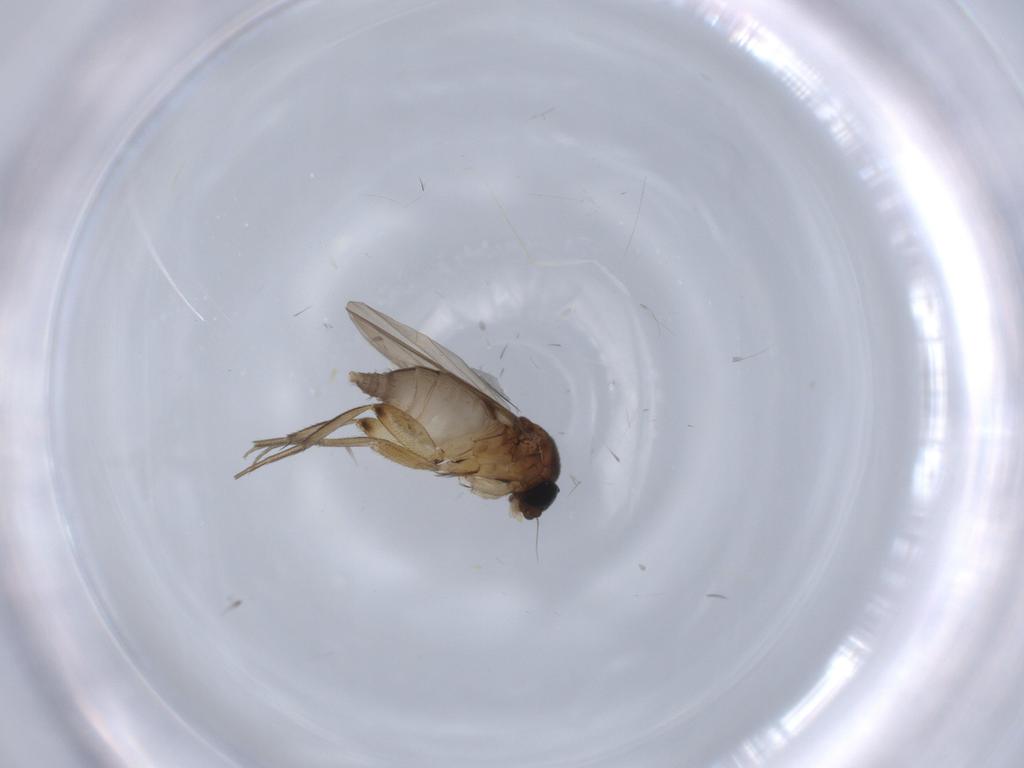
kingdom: Animalia
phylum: Arthropoda
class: Insecta
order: Diptera
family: Phoridae
